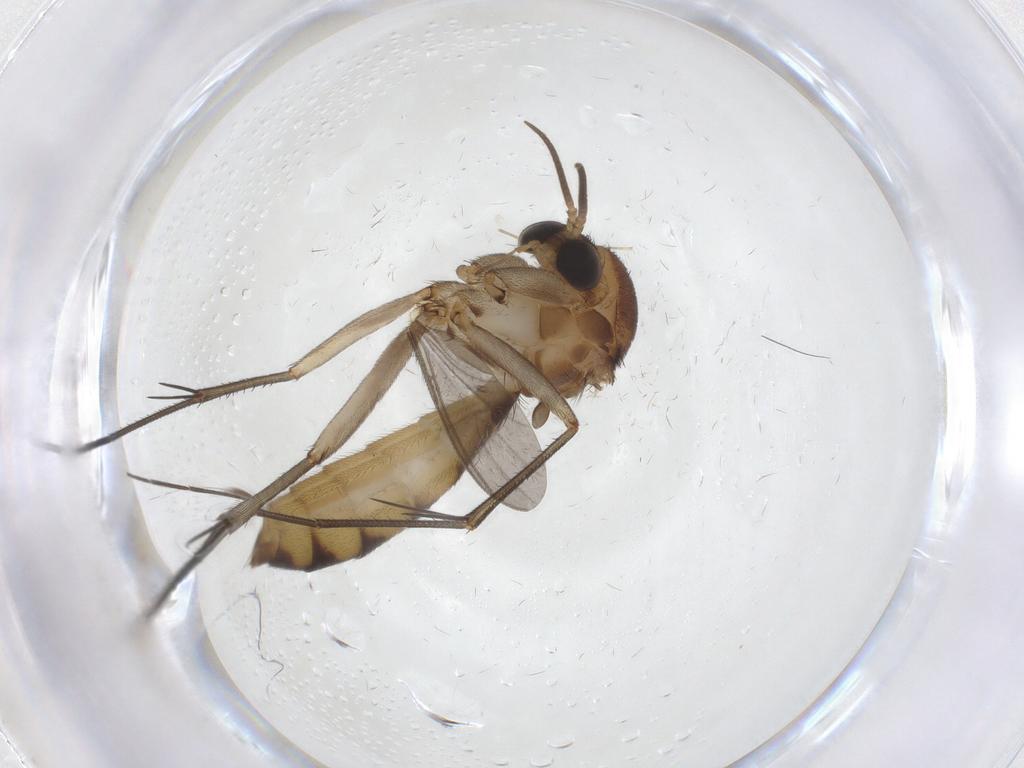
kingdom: Animalia
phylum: Arthropoda
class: Insecta
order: Diptera
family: Mycetophilidae
